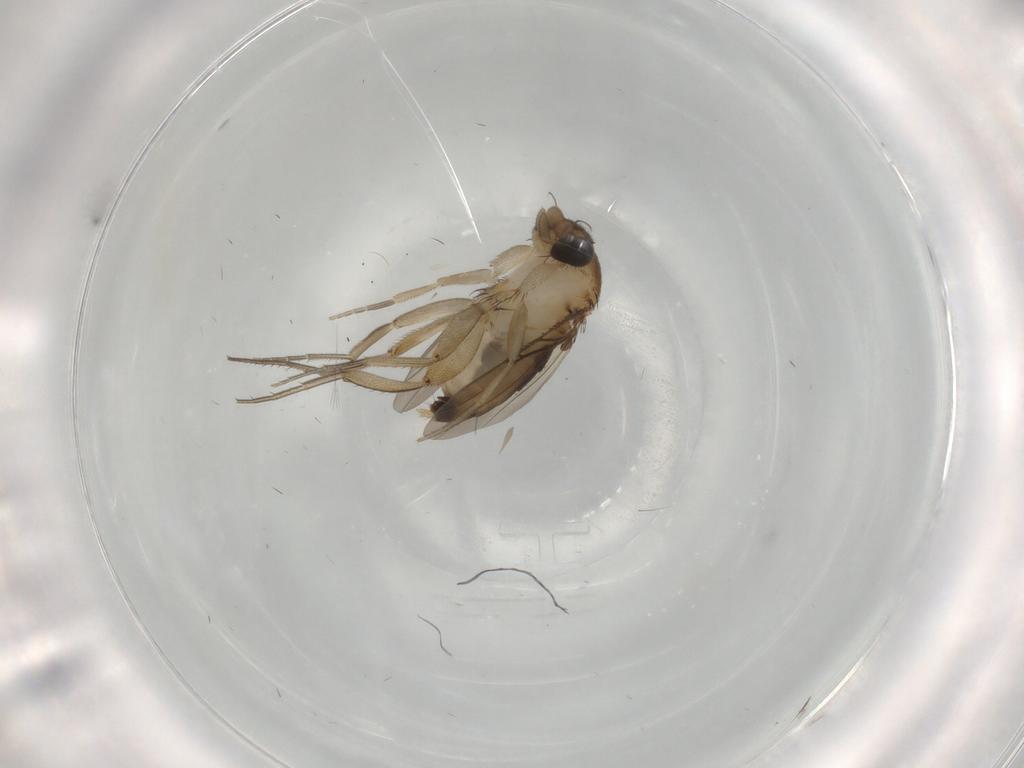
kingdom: Animalia
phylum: Arthropoda
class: Insecta
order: Diptera
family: Phoridae
